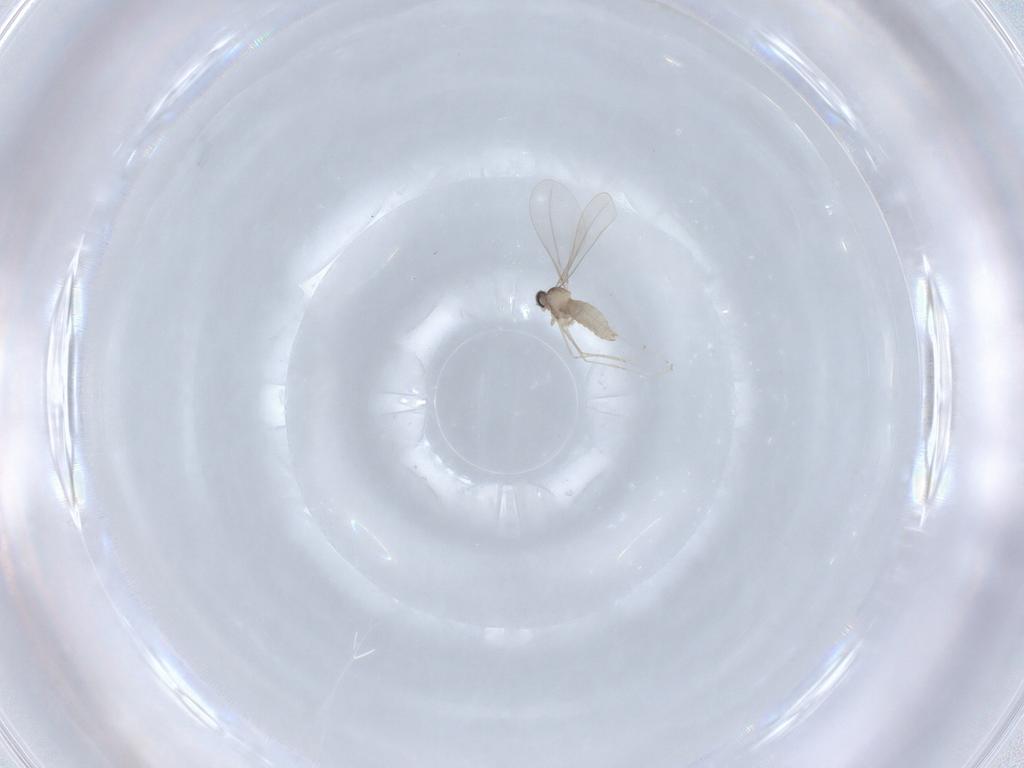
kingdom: Animalia
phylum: Arthropoda
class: Insecta
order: Diptera
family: Cecidomyiidae
